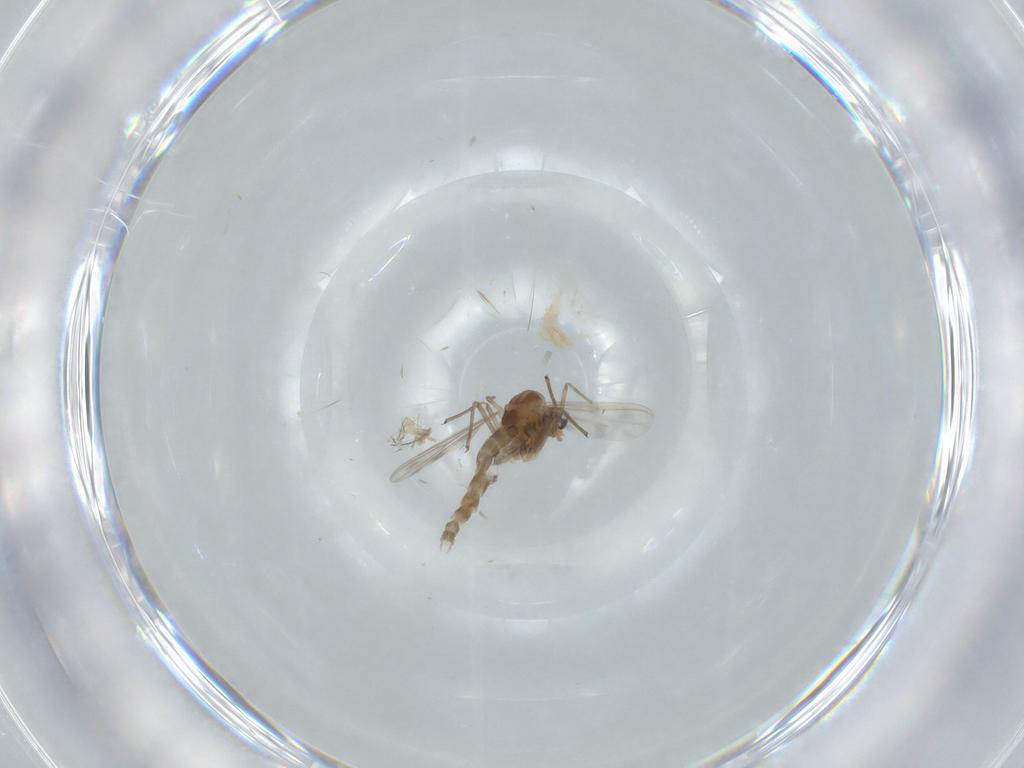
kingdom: Animalia
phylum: Arthropoda
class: Insecta
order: Diptera
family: Chironomidae
